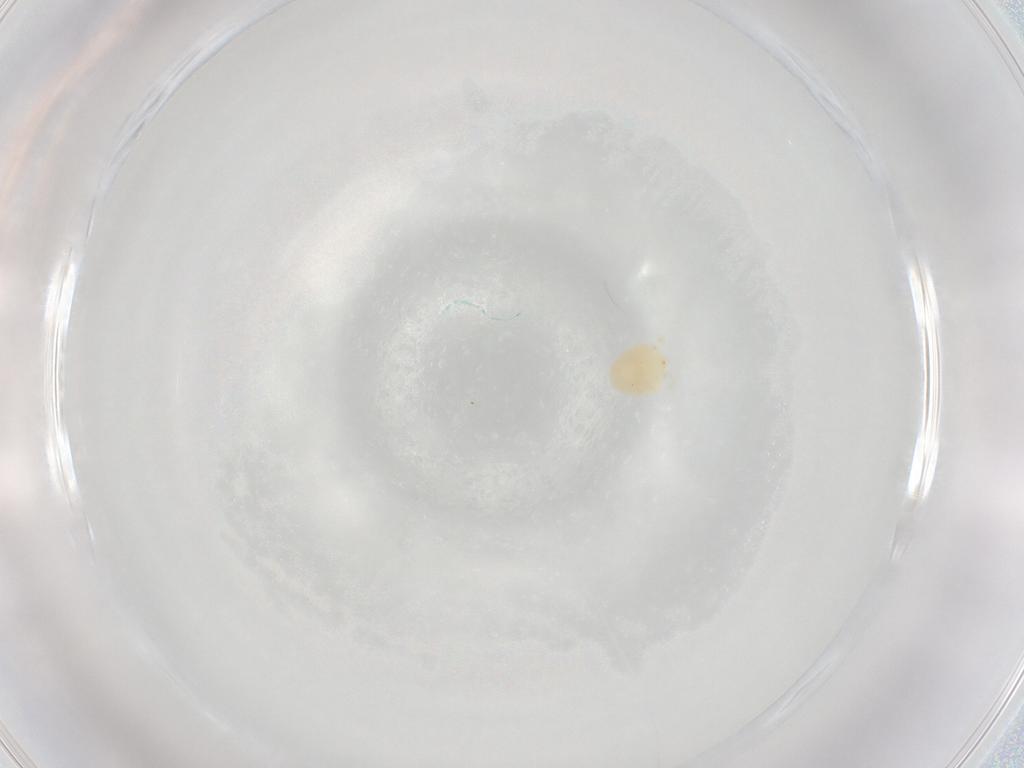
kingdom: Animalia
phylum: Arthropoda
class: Arachnida
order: Trombidiformes
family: Hydryphantidae
